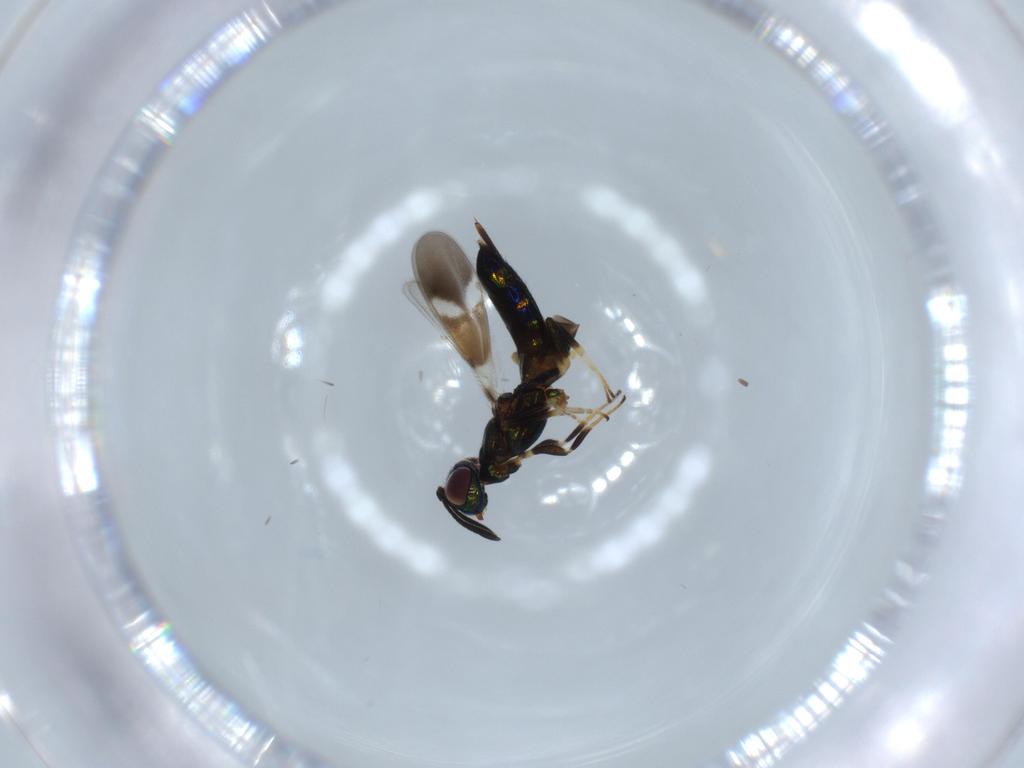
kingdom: Animalia
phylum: Arthropoda
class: Insecta
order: Hymenoptera
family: Eupelmidae
